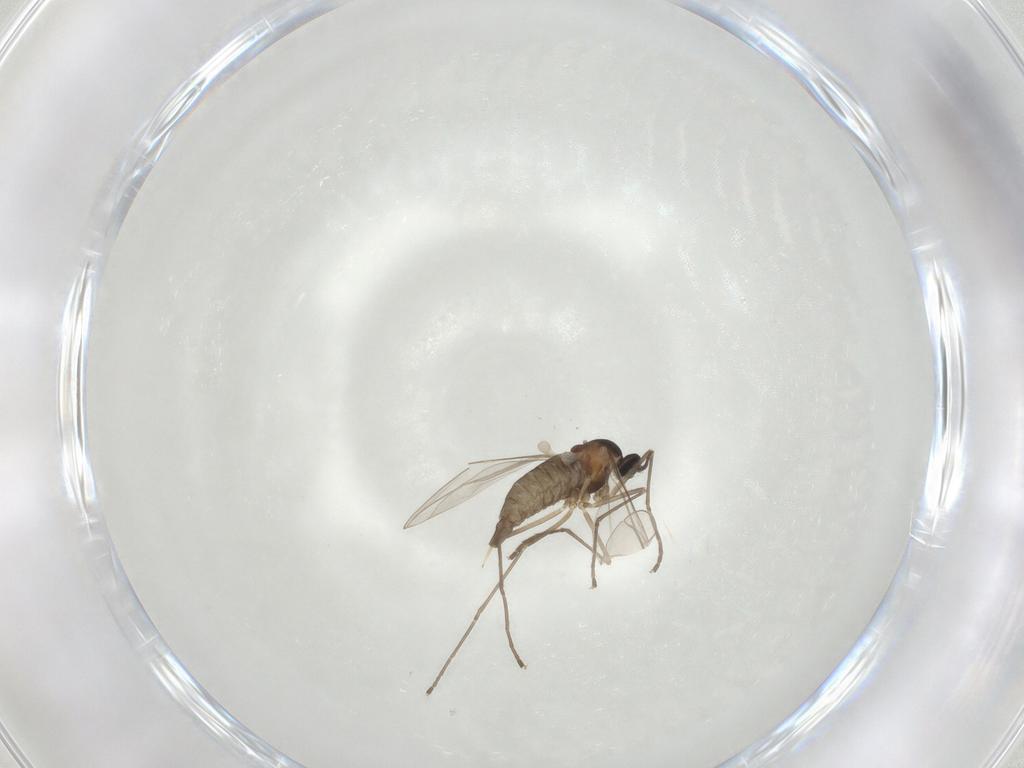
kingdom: Animalia
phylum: Arthropoda
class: Insecta
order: Diptera
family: Cecidomyiidae
